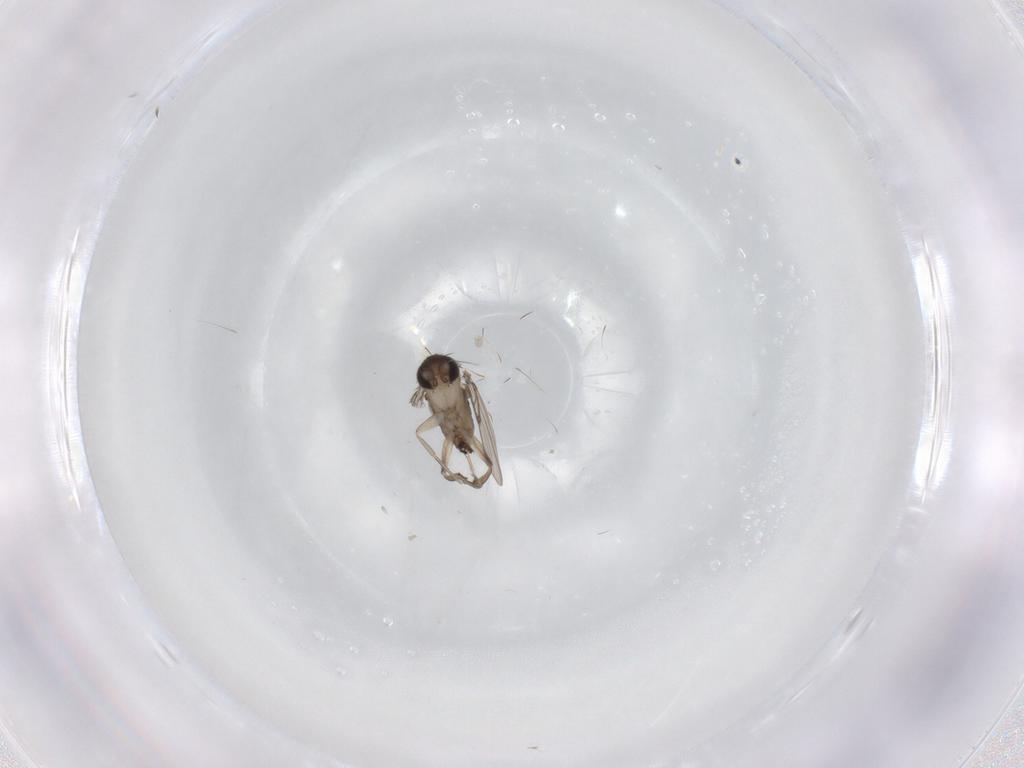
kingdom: Animalia
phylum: Arthropoda
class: Insecta
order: Diptera
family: Phoridae
